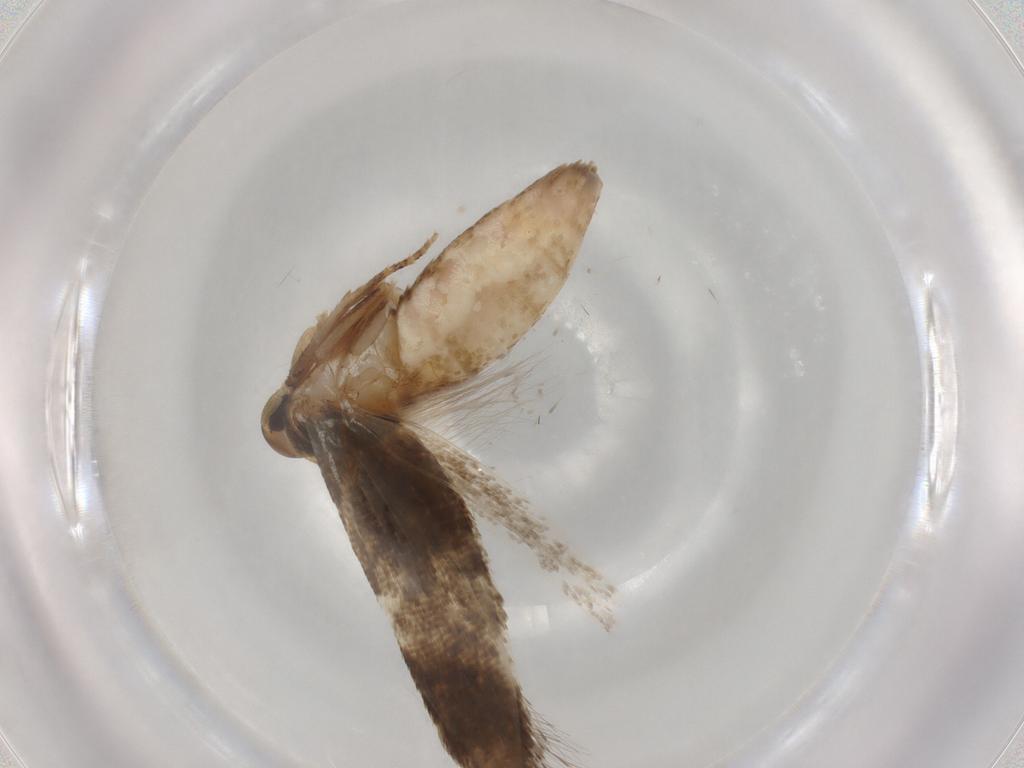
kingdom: Animalia
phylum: Arthropoda
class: Insecta
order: Lepidoptera
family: Cosmopterigidae
